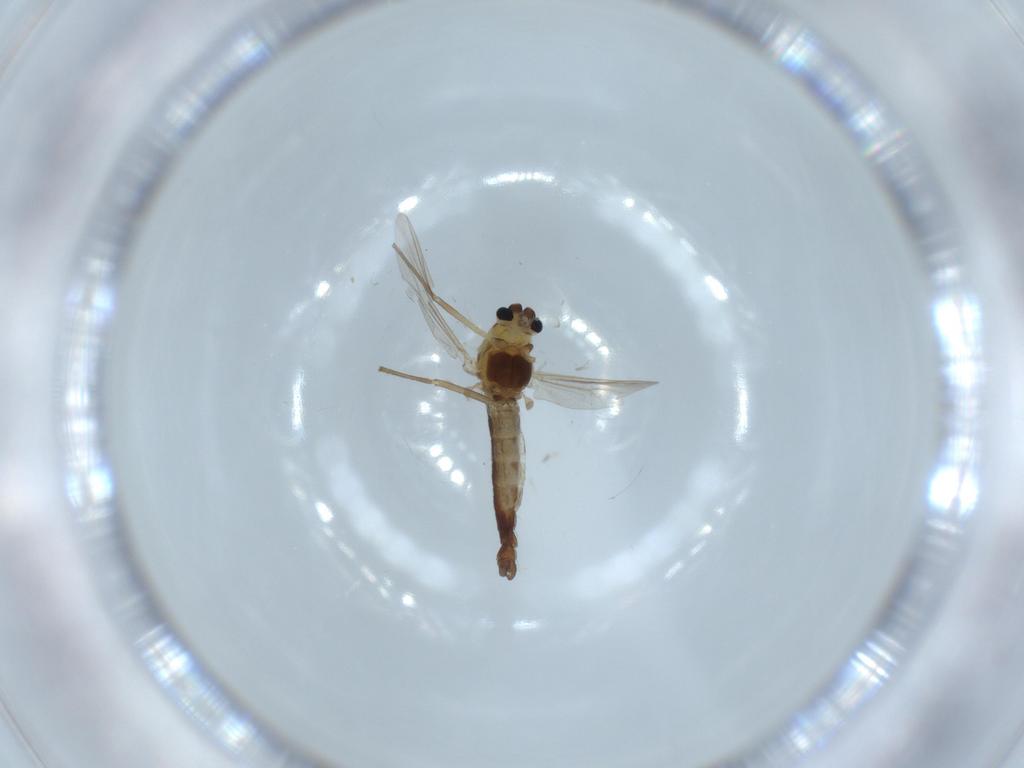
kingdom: Animalia
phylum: Arthropoda
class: Insecta
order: Diptera
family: Chironomidae
